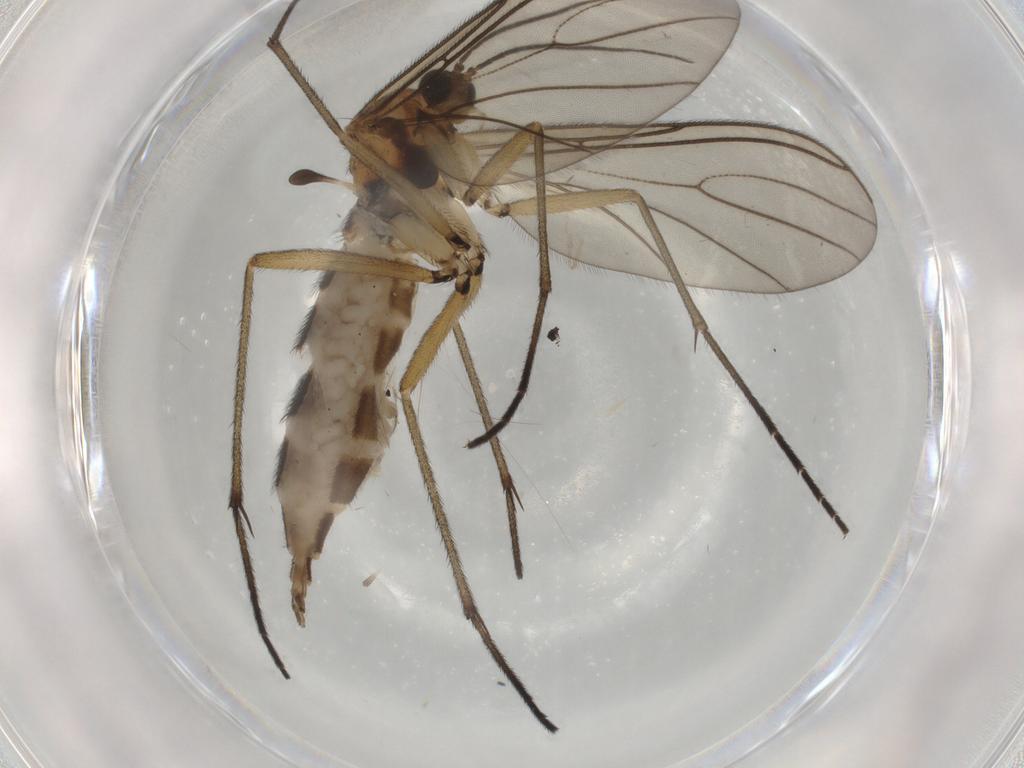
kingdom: Animalia
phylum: Arthropoda
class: Insecta
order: Diptera
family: Sciaridae
